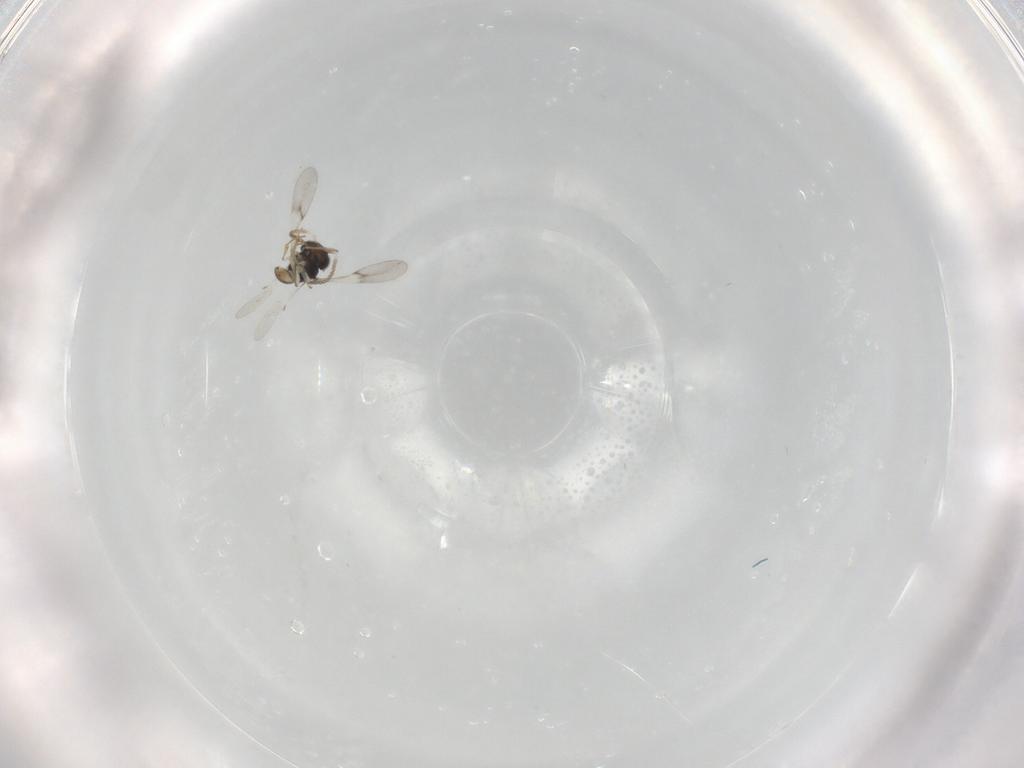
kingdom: Animalia
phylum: Arthropoda
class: Insecta
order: Hymenoptera
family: Scelionidae
